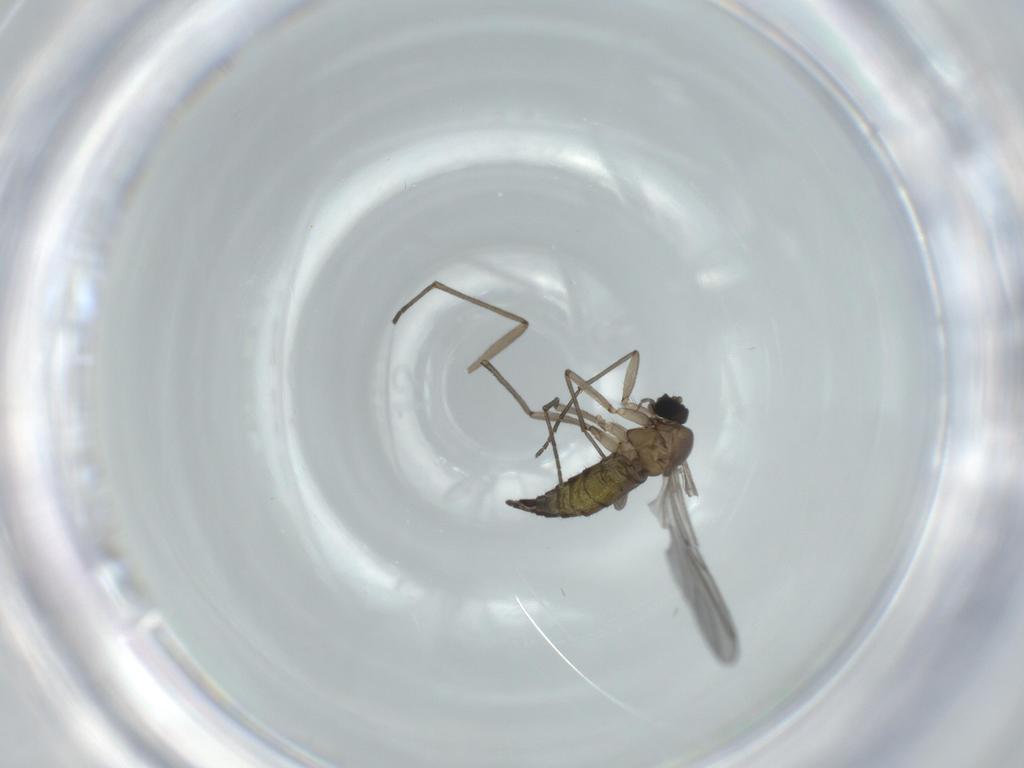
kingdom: Animalia
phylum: Arthropoda
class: Insecta
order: Diptera
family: Sciaridae
